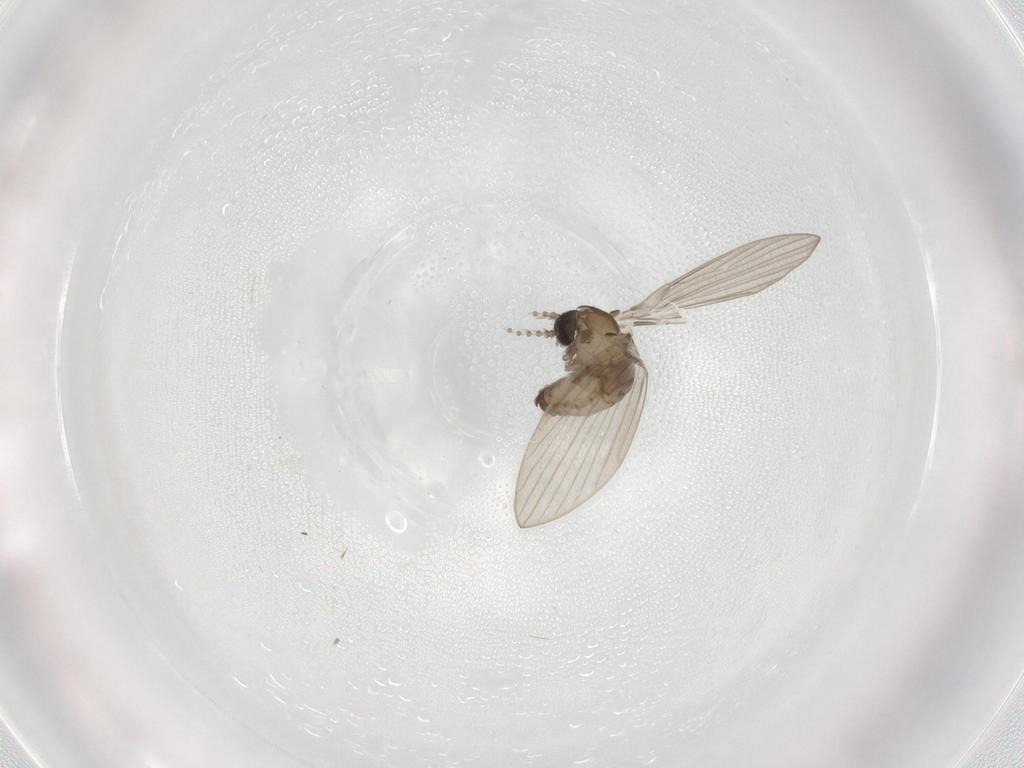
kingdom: Animalia
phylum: Arthropoda
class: Insecta
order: Diptera
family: Psychodidae
